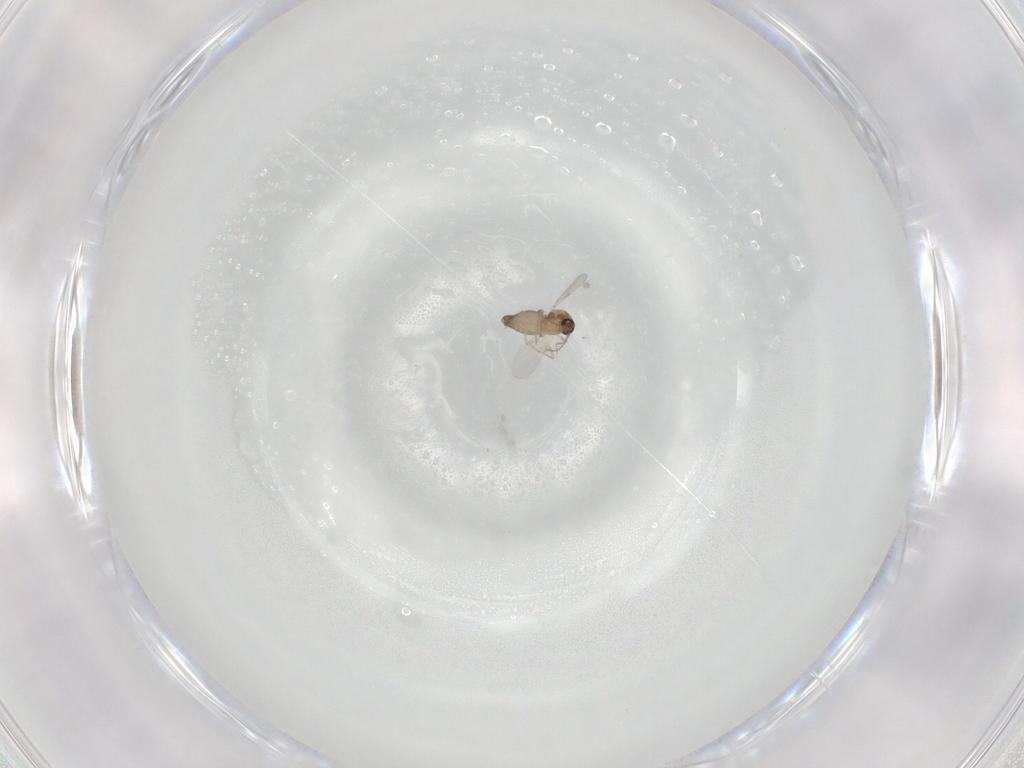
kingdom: Animalia
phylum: Arthropoda
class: Insecta
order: Diptera
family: Ceratopogonidae
